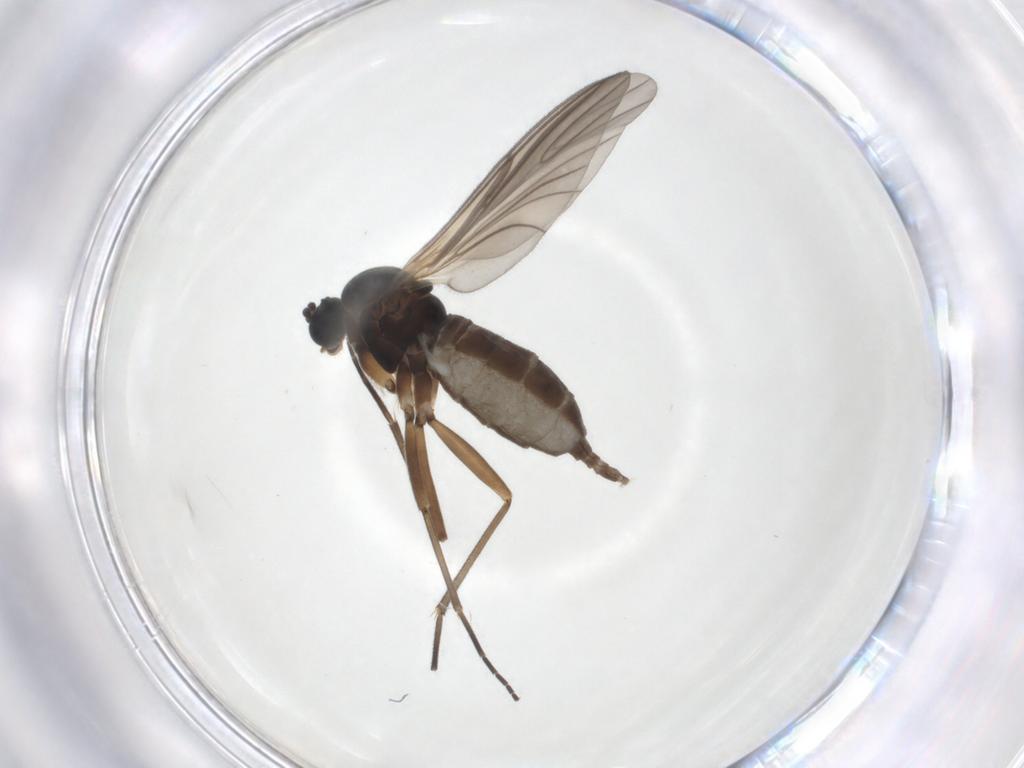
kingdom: Animalia
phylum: Arthropoda
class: Insecta
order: Diptera
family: Sciaridae
